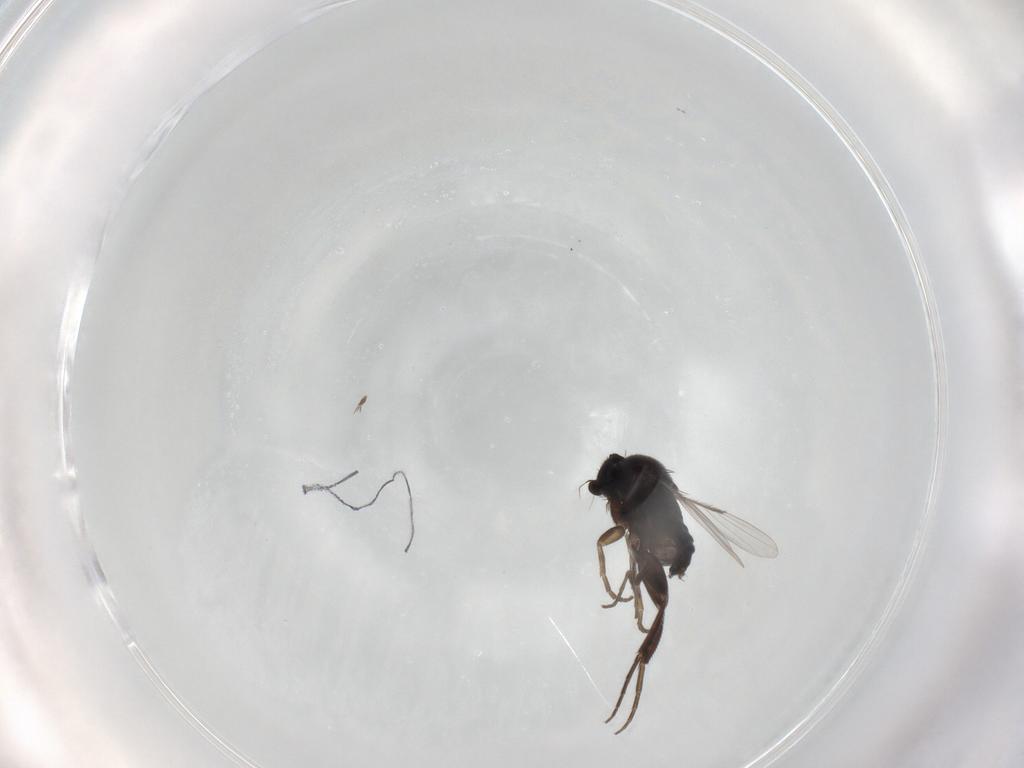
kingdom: Animalia
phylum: Arthropoda
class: Insecta
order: Diptera
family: Phoridae
